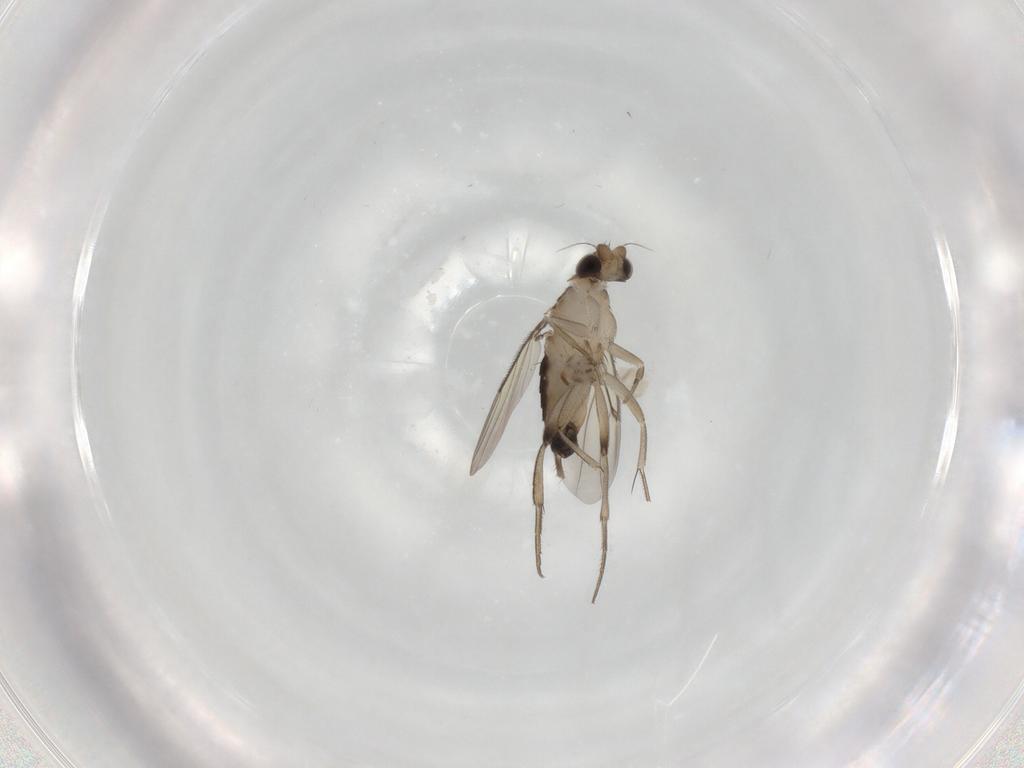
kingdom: Animalia
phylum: Arthropoda
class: Insecta
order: Diptera
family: Phoridae
